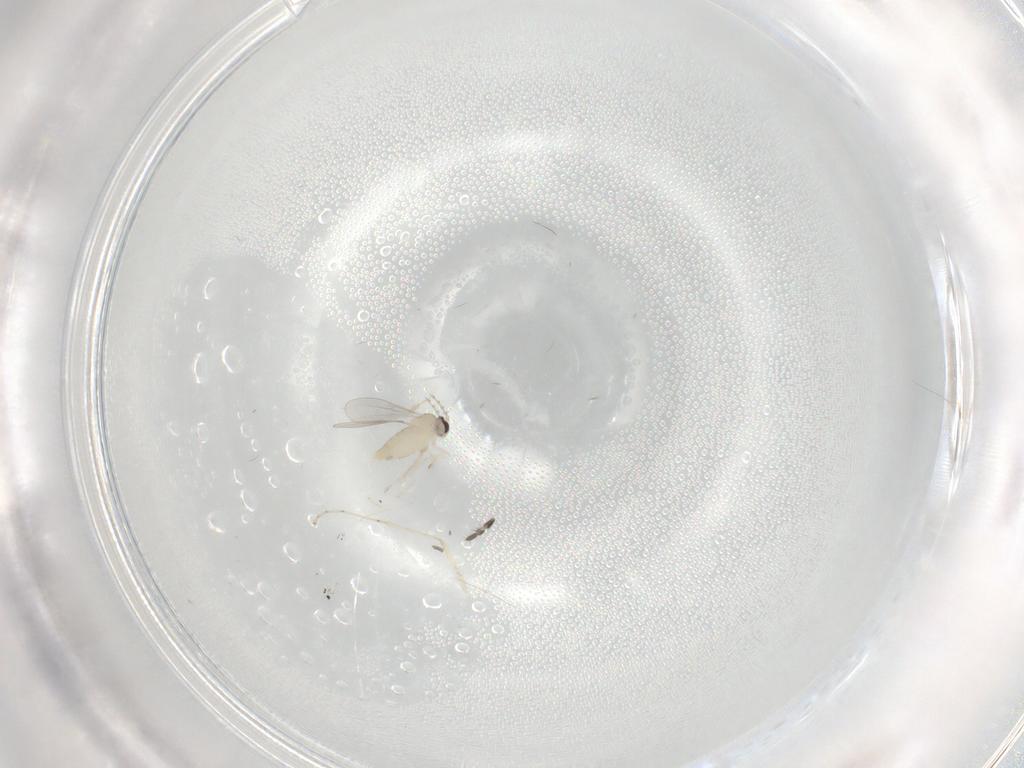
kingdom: Animalia
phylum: Arthropoda
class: Insecta
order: Diptera
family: Cecidomyiidae
